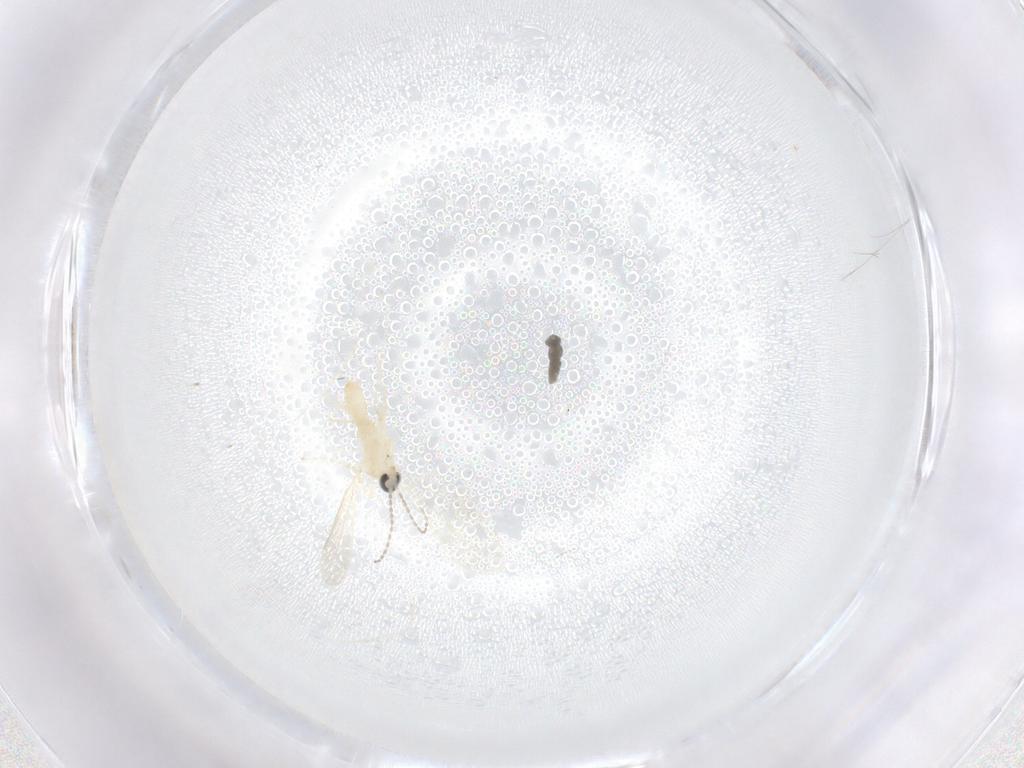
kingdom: Animalia
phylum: Arthropoda
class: Insecta
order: Diptera
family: Cecidomyiidae
